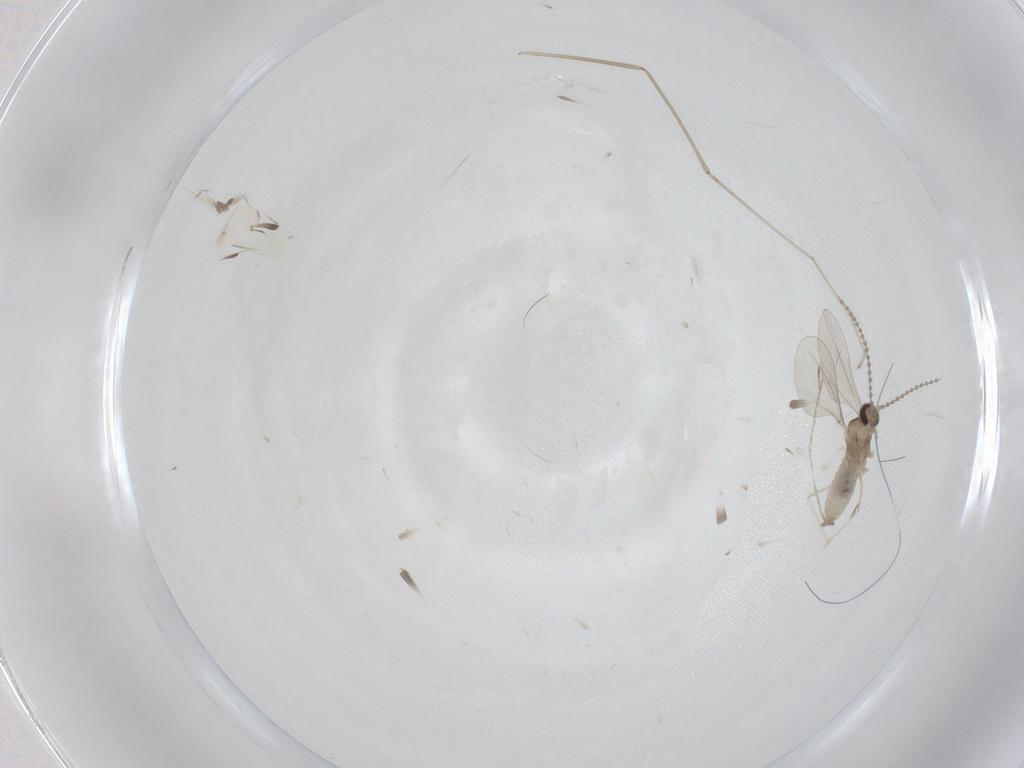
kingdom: Animalia
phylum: Arthropoda
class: Insecta
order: Diptera
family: Cecidomyiidae
